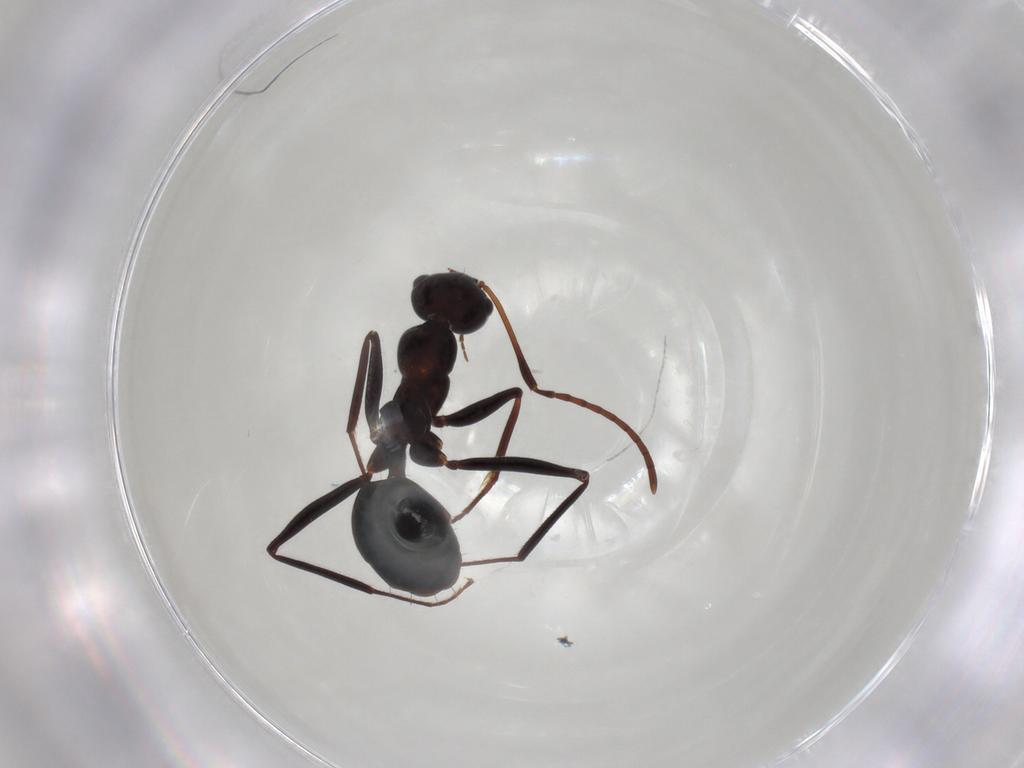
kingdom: Animalia
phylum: Arthropoda
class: Insecta
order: Hymenoptera
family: Formicidae
